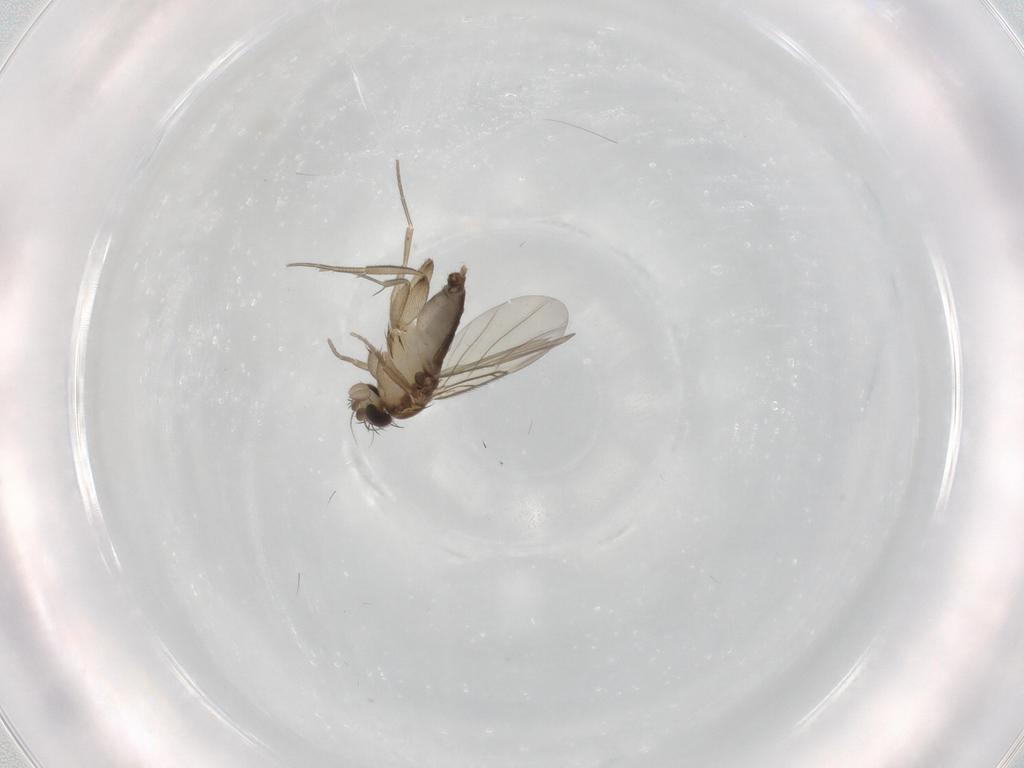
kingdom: Animalia
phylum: Arthropoda
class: Insecta
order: Diptera
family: Phoridae
